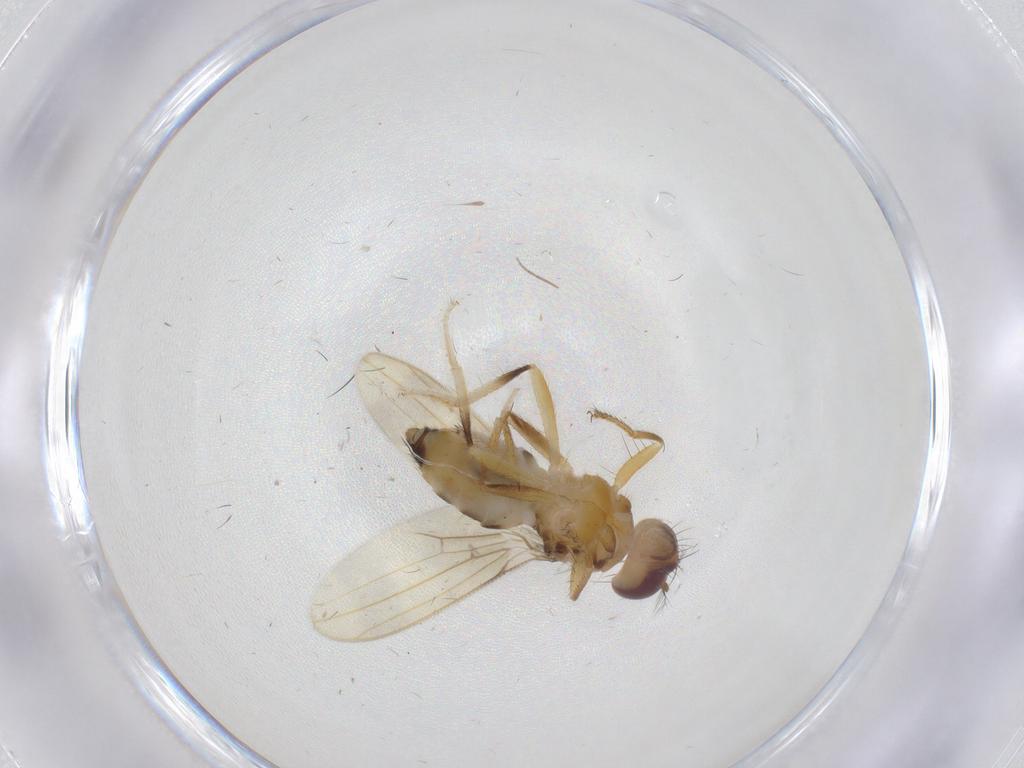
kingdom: Animalia
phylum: Arthropoda
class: Insecta
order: Diptera
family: Periscelididae
